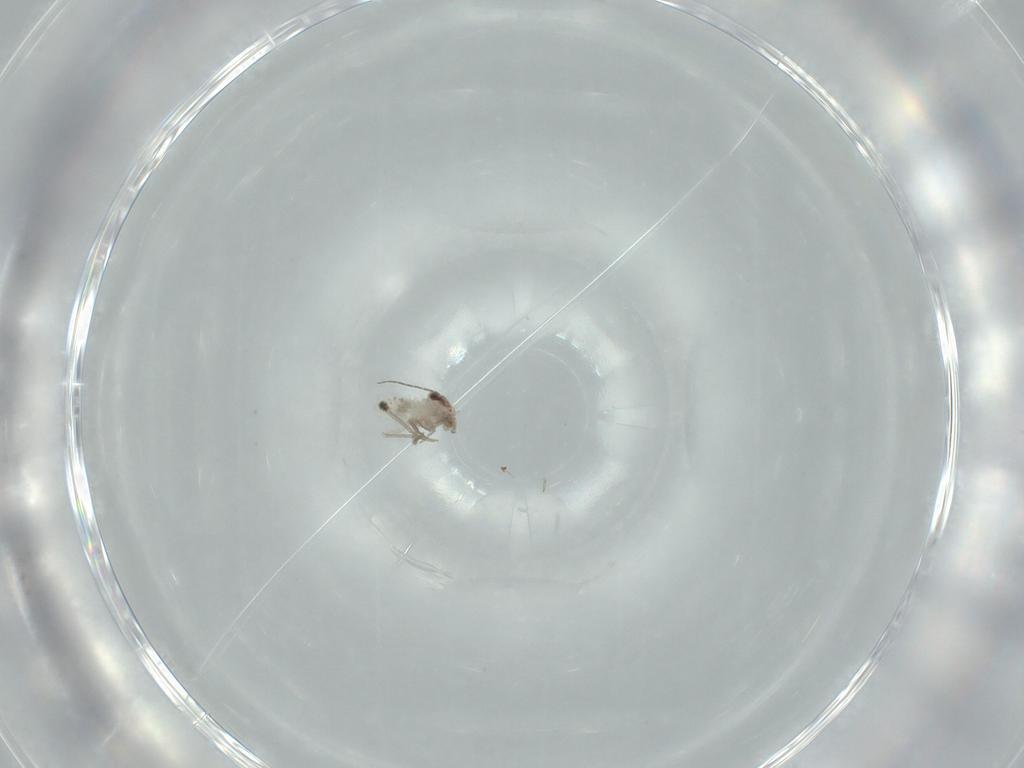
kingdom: Animalia
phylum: Arthropoda
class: Insecta
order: Psocodea
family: Lepidopsocidae
